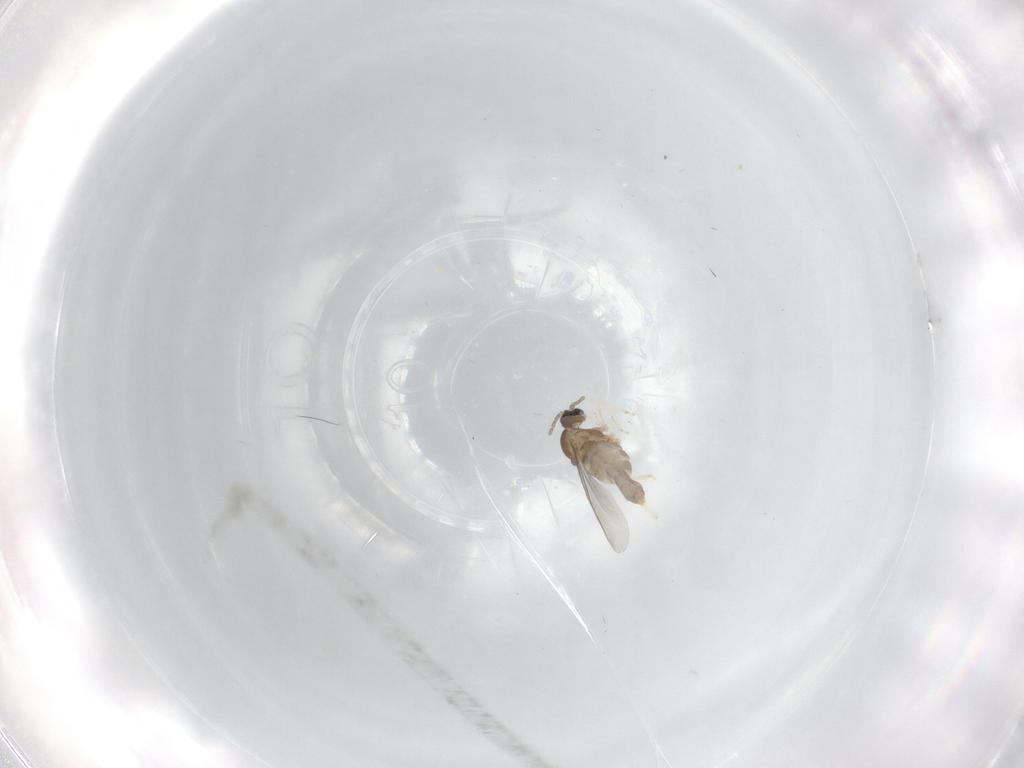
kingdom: Animalia
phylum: Arthropoda
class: Insecta
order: Diptera
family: Cecidomyiidae
